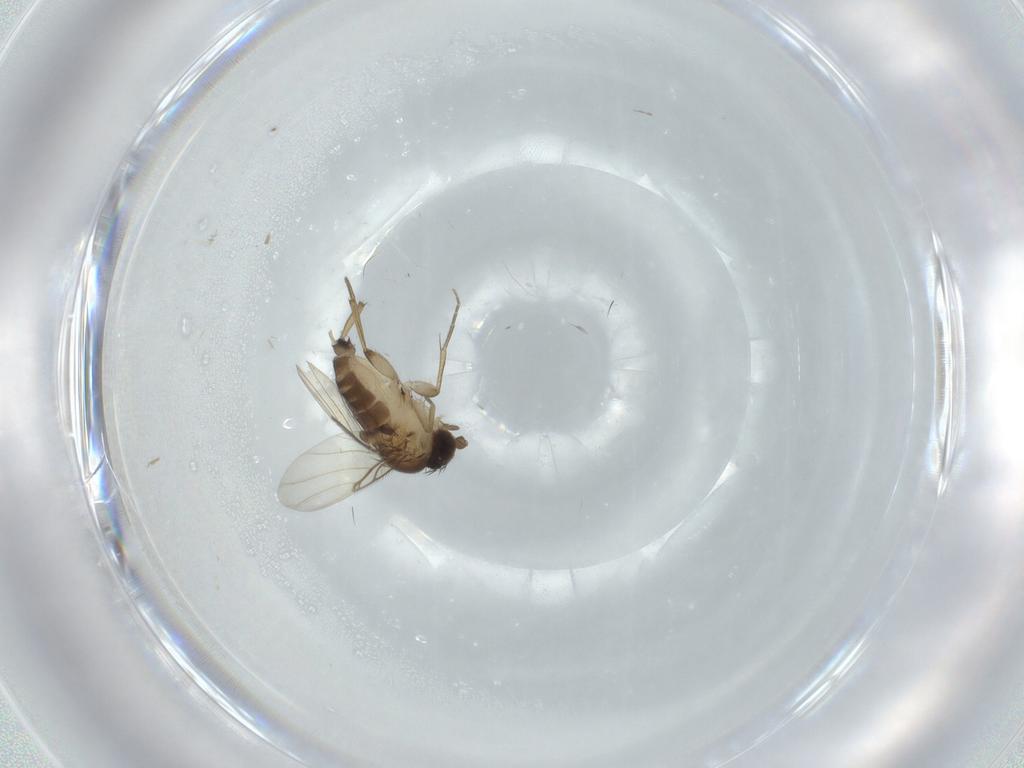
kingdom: Animalia
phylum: Arthropoda
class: Insecta
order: Diptera
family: Phoridae
